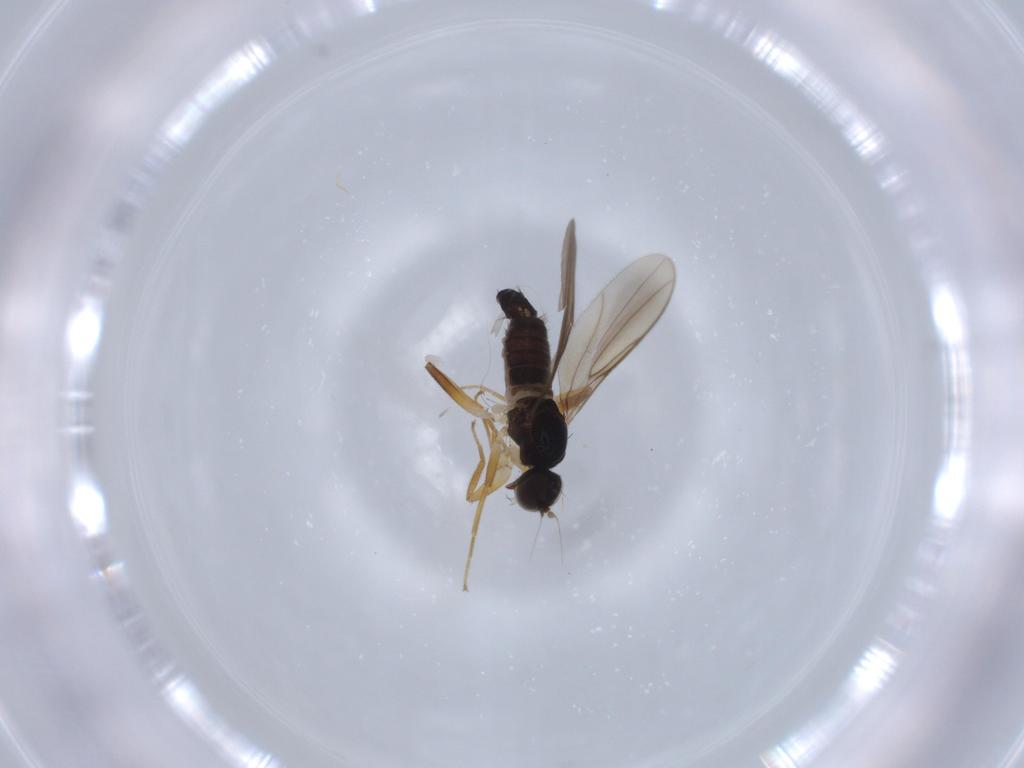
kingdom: Animalia
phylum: Arthropoda
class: Insecta
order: Diptera
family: Hybotidae
